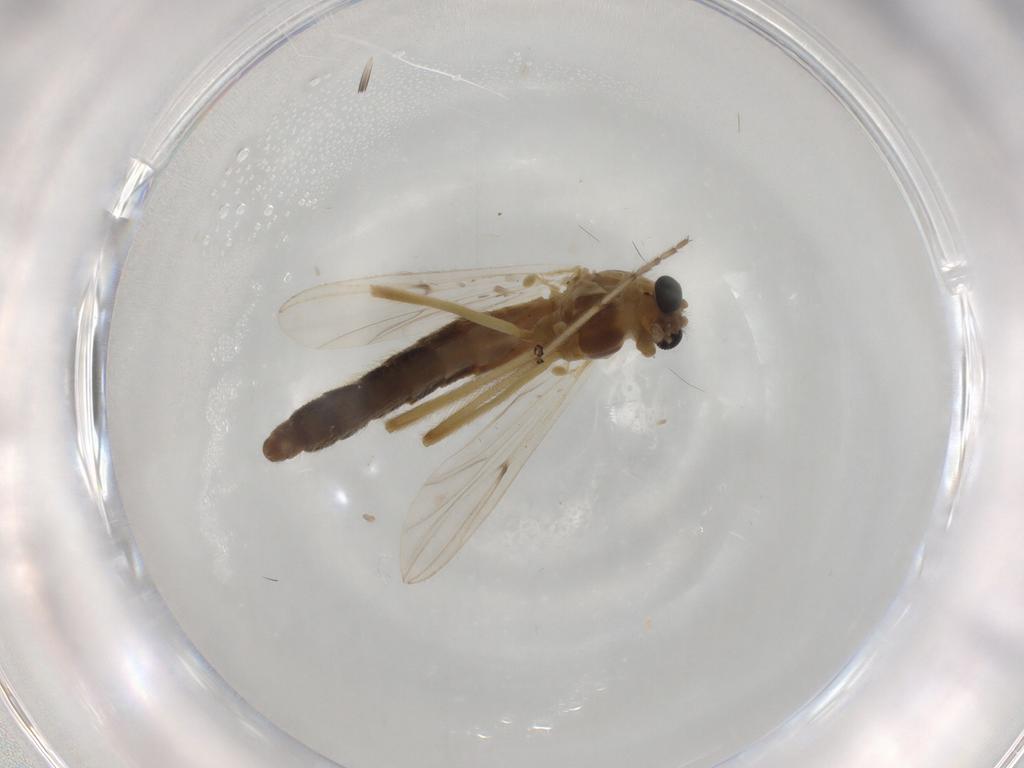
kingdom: Animalia
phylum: Arthropoda
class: Insecta
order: Diptera
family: Chironomidae
